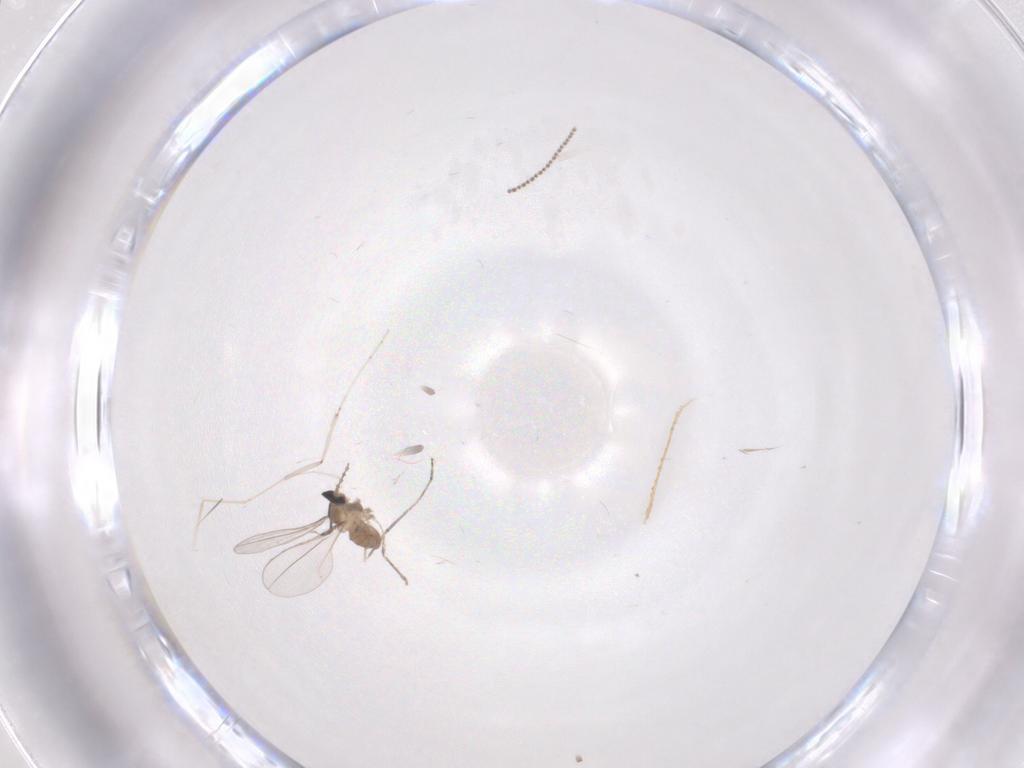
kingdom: Animalia
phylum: Arthropoda
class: Insecta
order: Diptera
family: Cecidomyiidae
